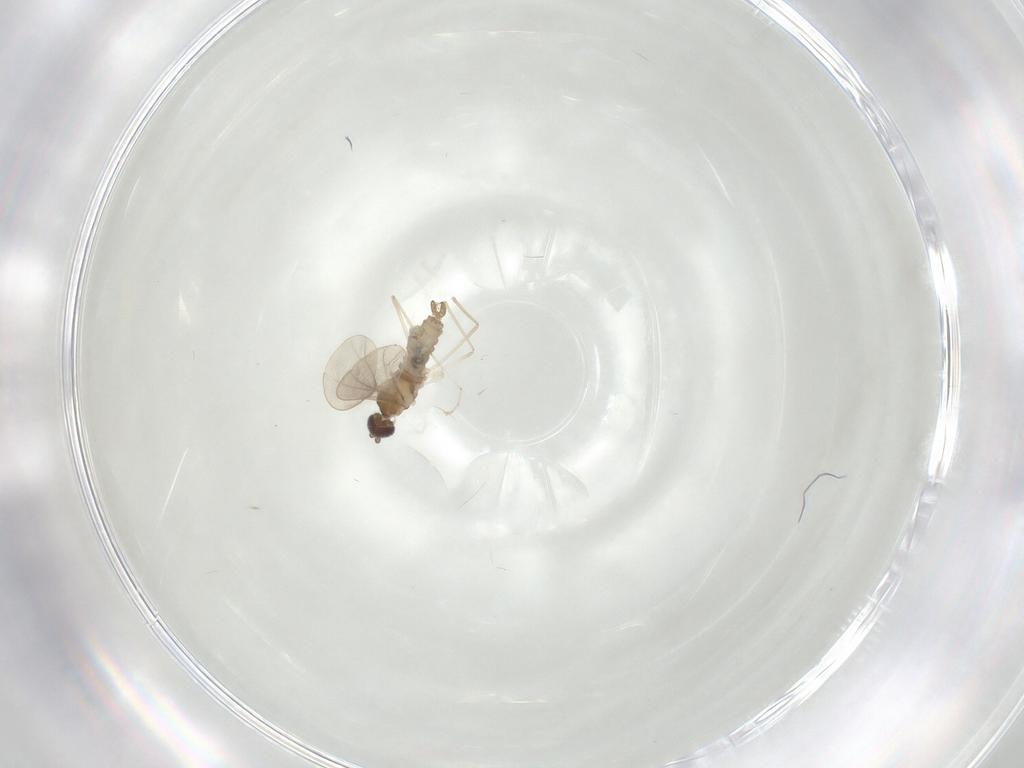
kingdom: Animalia
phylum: Arthropoda
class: Insecta
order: Diptera
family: Cecidomyiidae
